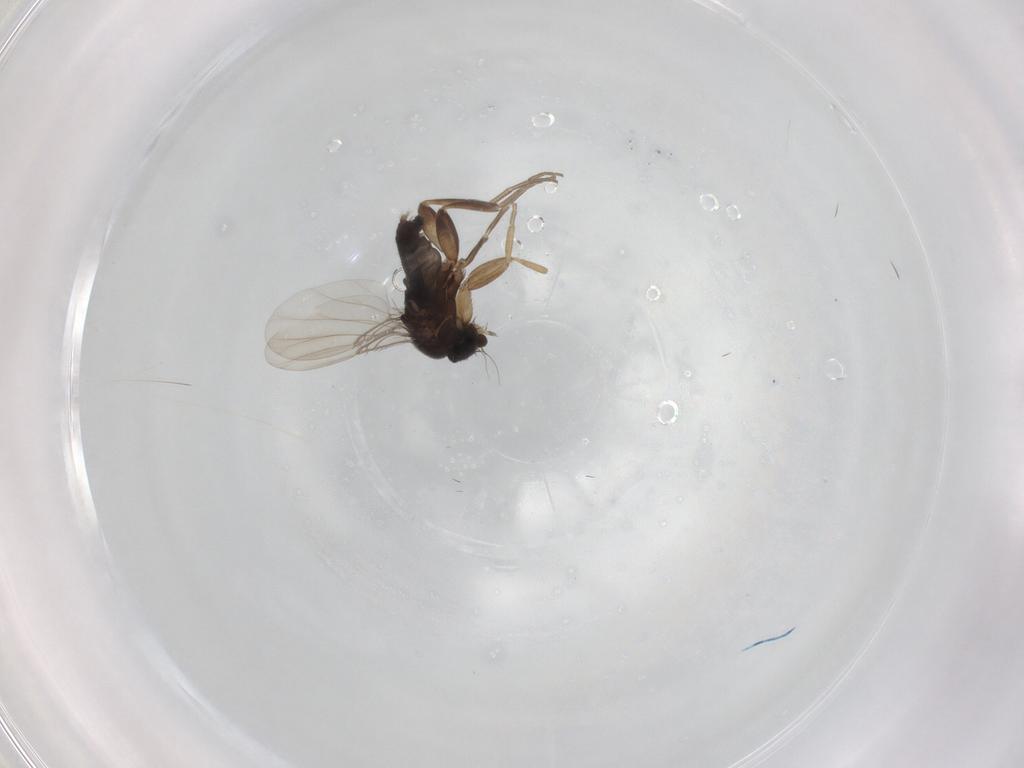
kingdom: Animalia
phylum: Arthropoda
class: Insecta
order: Diptera
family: Phoridae
